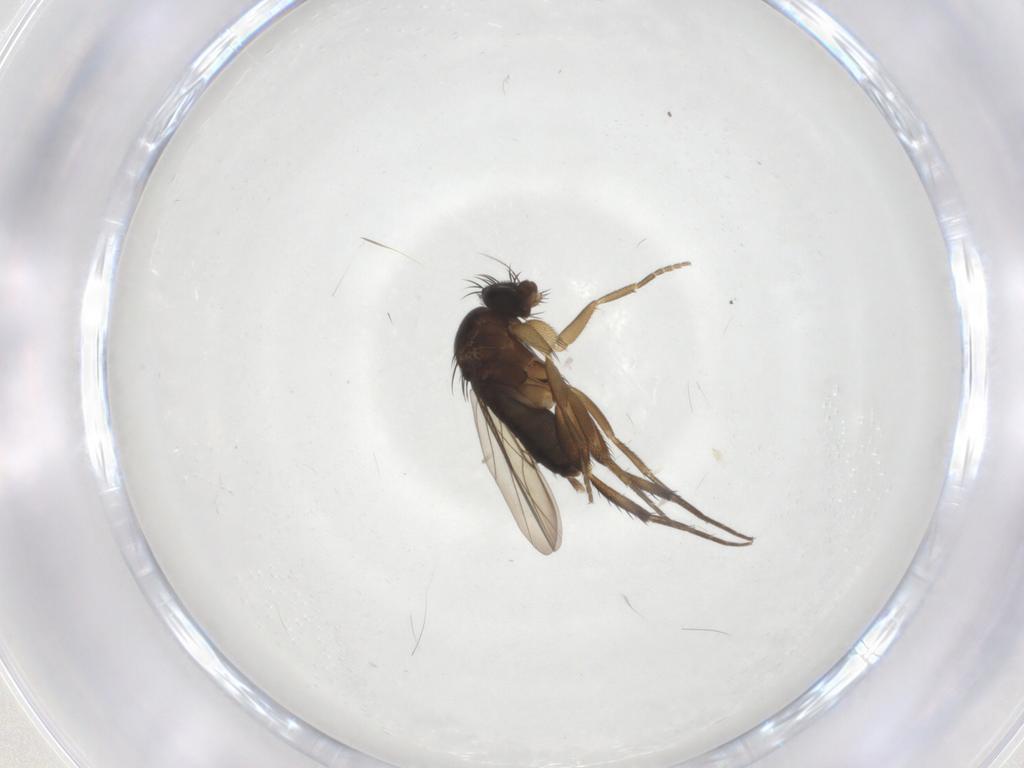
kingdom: Animalia
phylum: Arthropoda
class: Insecta
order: Diptera
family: Phoridae
